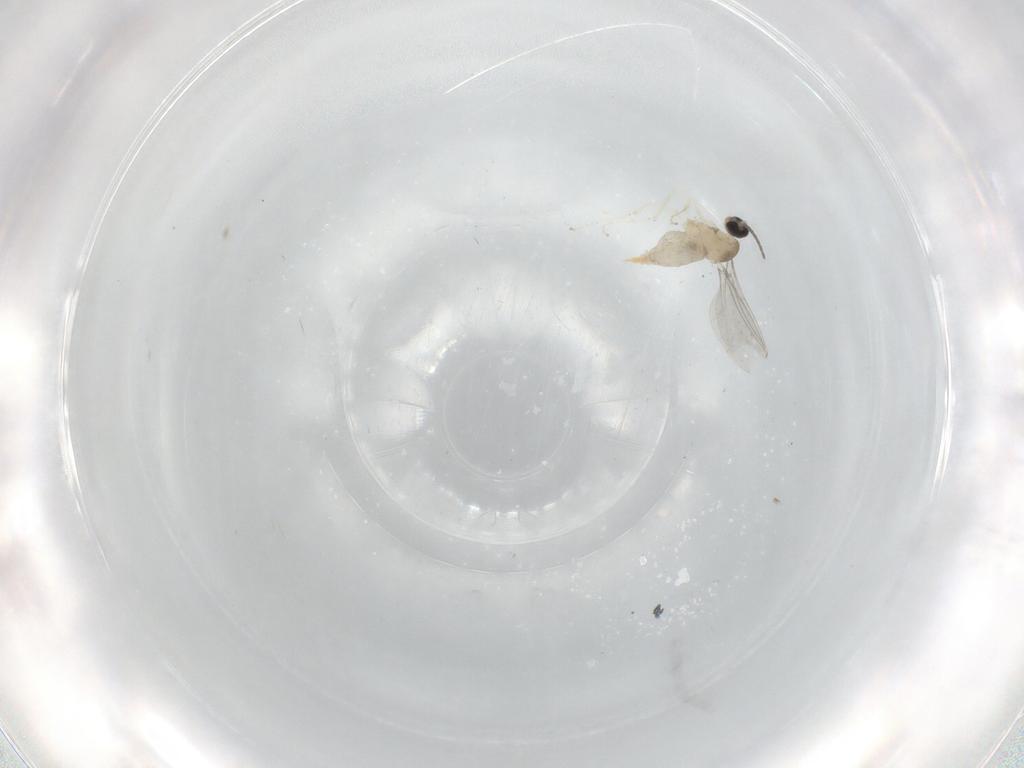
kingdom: Animalia
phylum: Arthropoda
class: Insecta
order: Diptera
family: Cecidomyiidae
